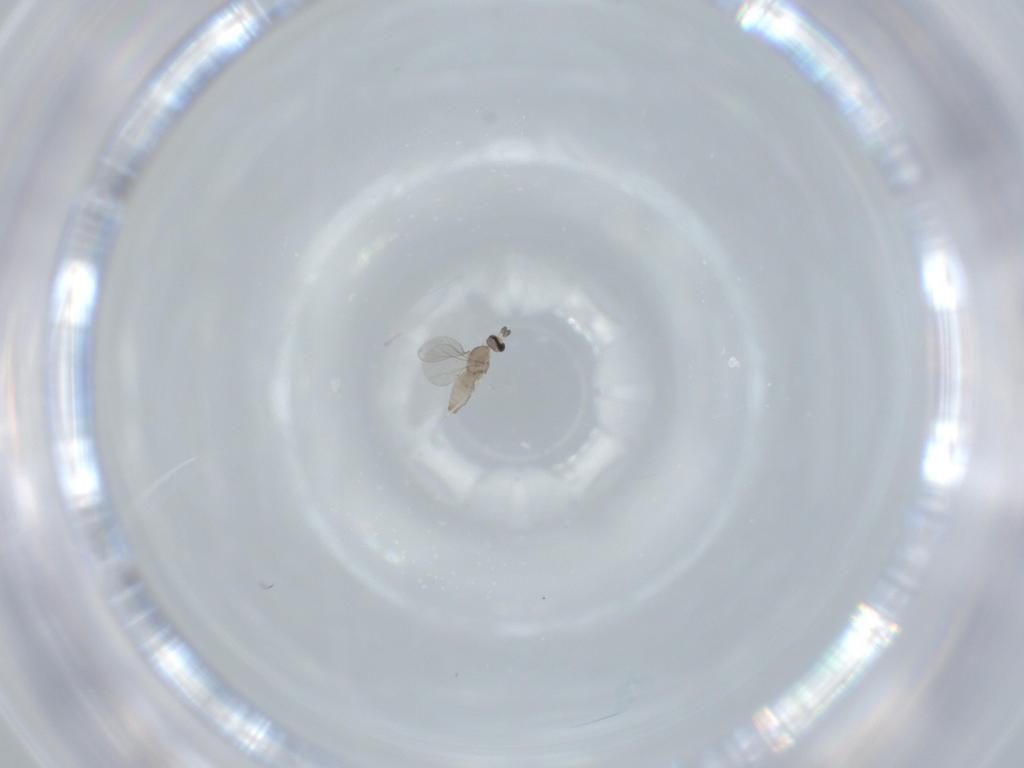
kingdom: Animalia
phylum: Arthropoda
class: Insecta
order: Diptera
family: Cecidomyiidae
